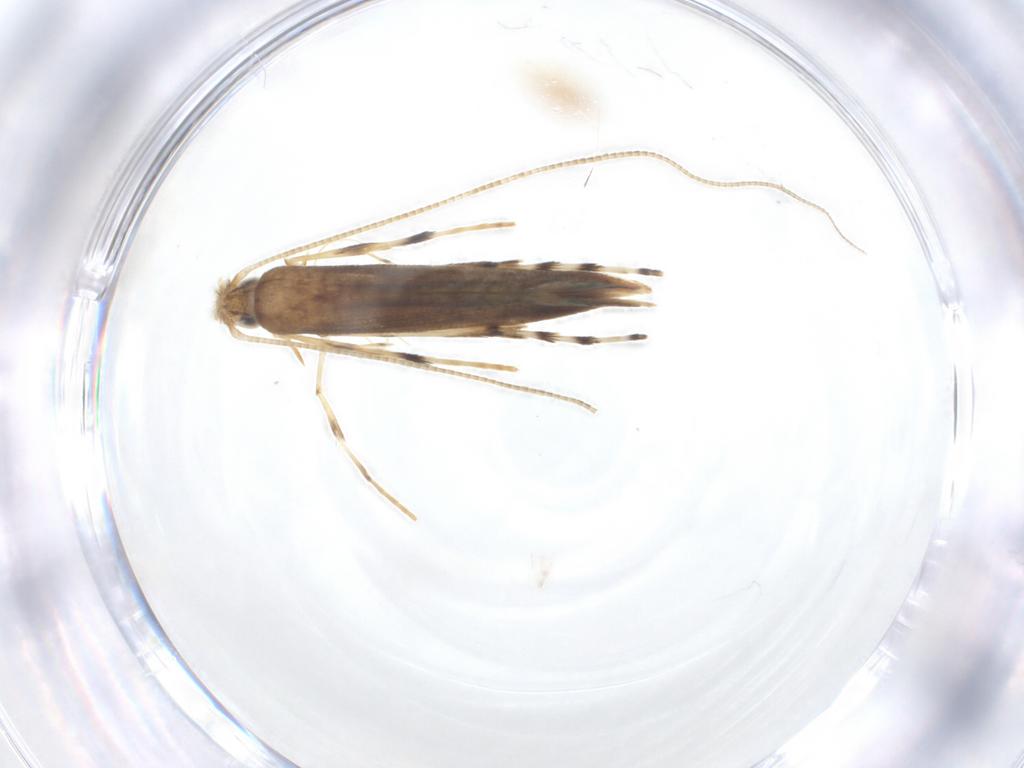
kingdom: Animalia
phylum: Arthropoda
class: Insecta
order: Lepidoptera
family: Gracillariidae
